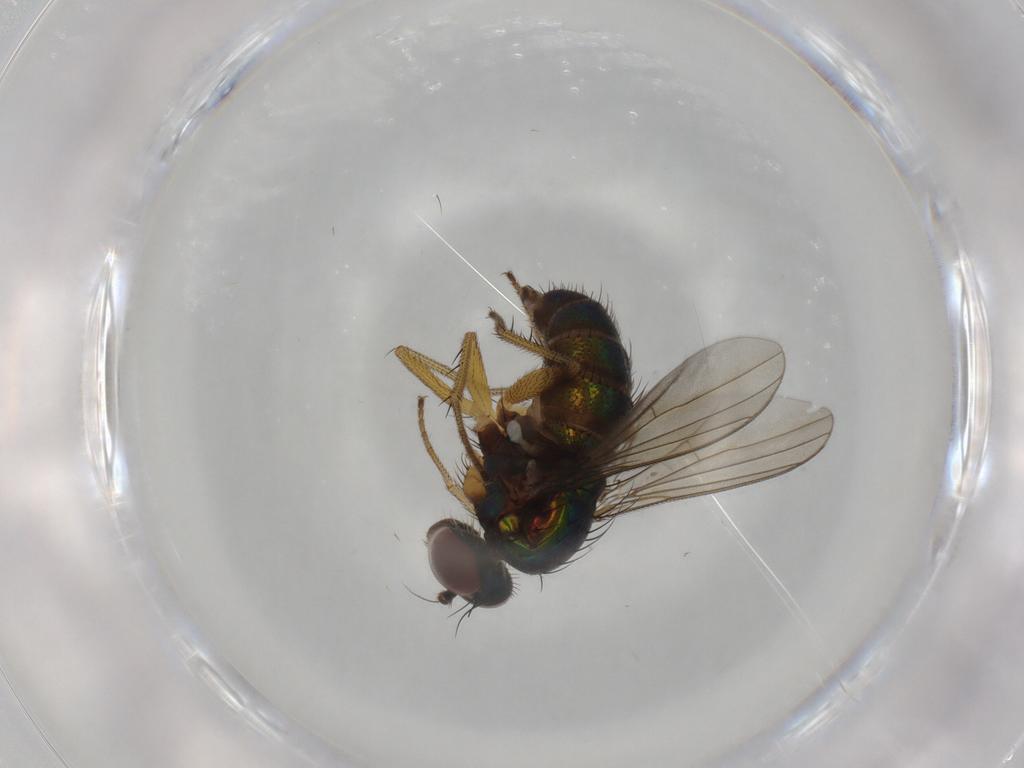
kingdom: Animalia
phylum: Arthropoda
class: Insecta
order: Diptera
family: Dolichopodidae
